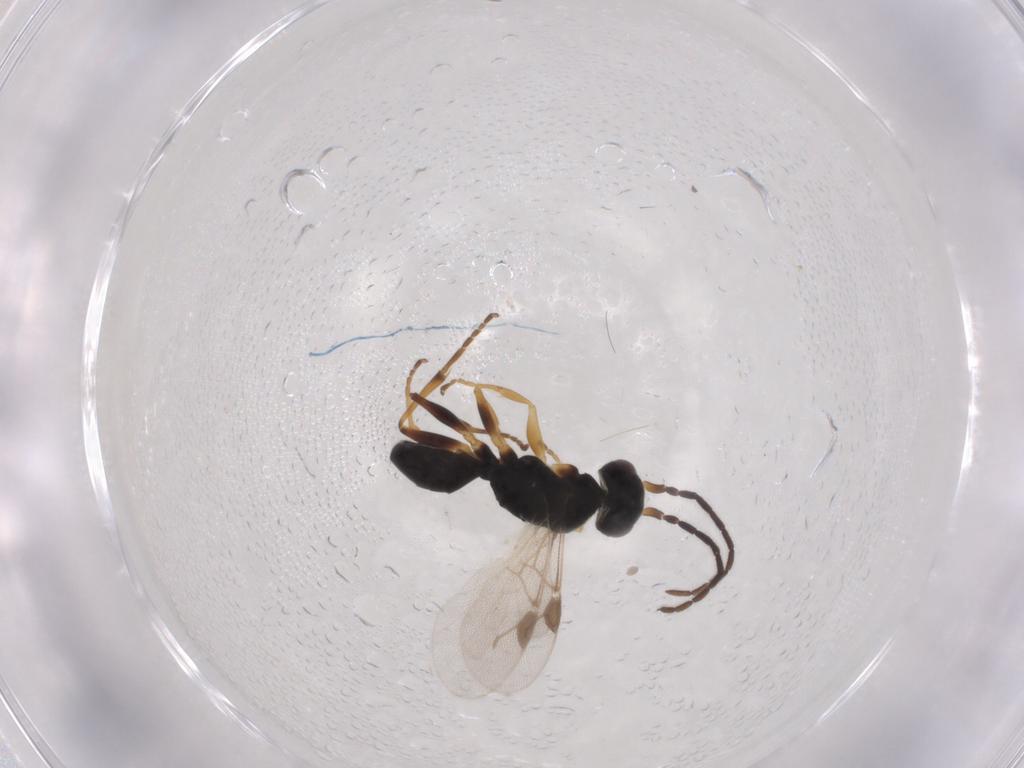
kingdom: Animalia
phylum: Arthropoda
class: Insecta
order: Hymenoptera
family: Dryinidae
